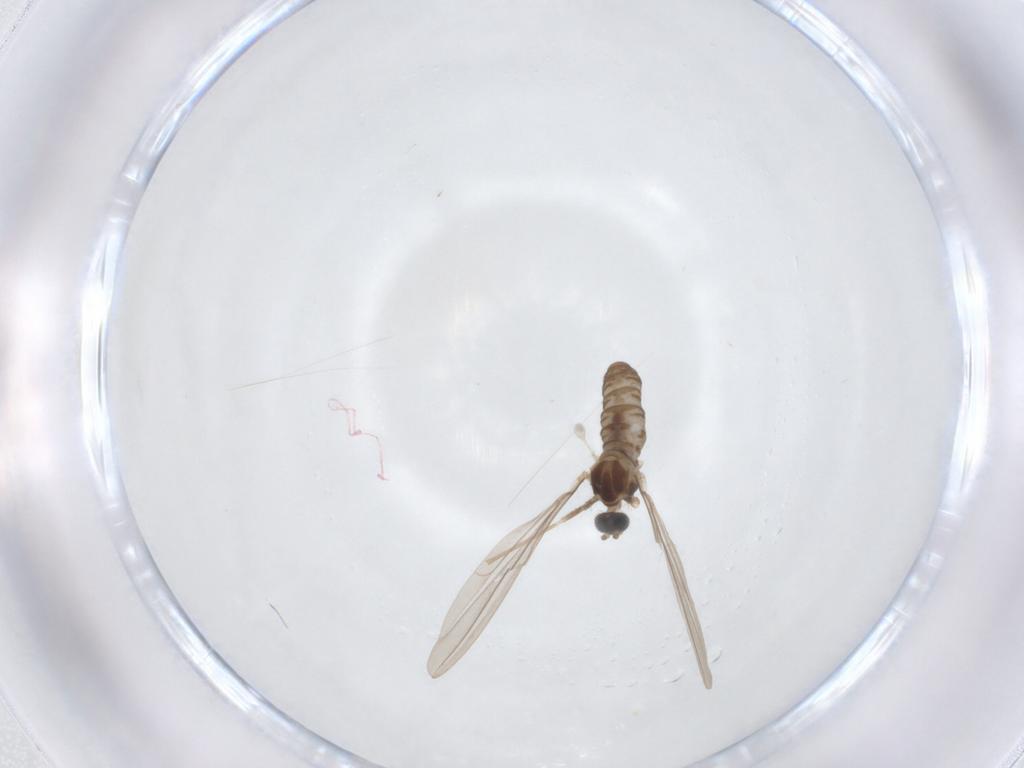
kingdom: Animalia
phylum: Arthropoda
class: Insecta
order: Diptera
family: Cecidomyiidae
